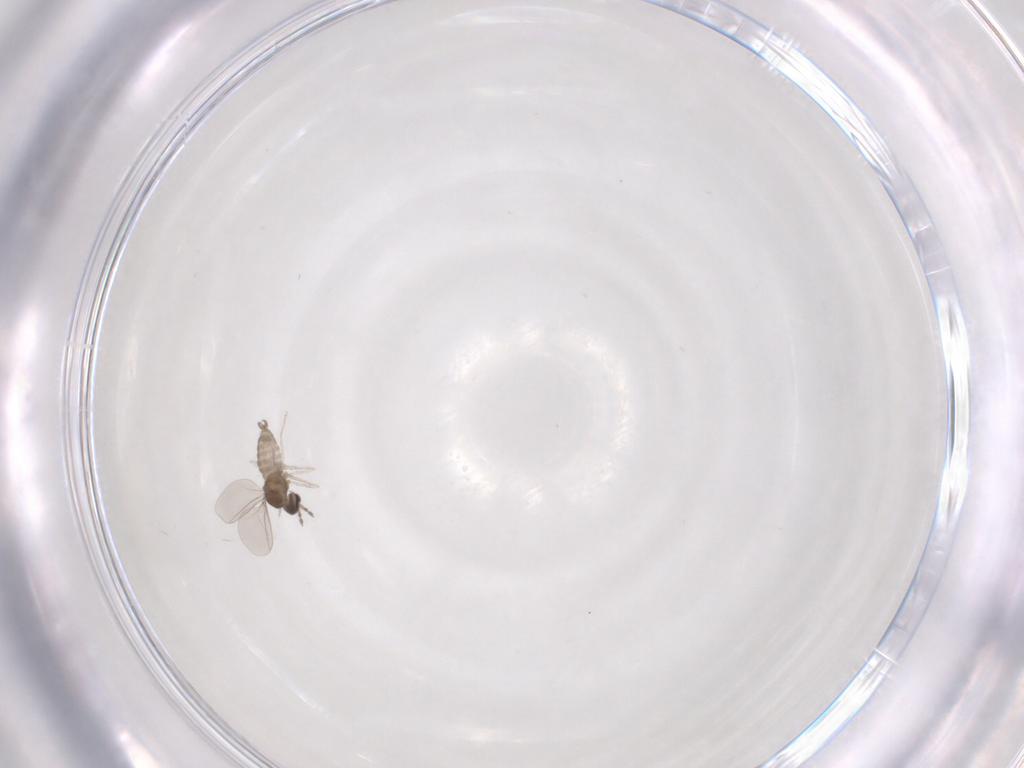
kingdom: Animalia
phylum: Arthropoda
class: Insecta
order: Diptera
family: Cecidomyiidae
